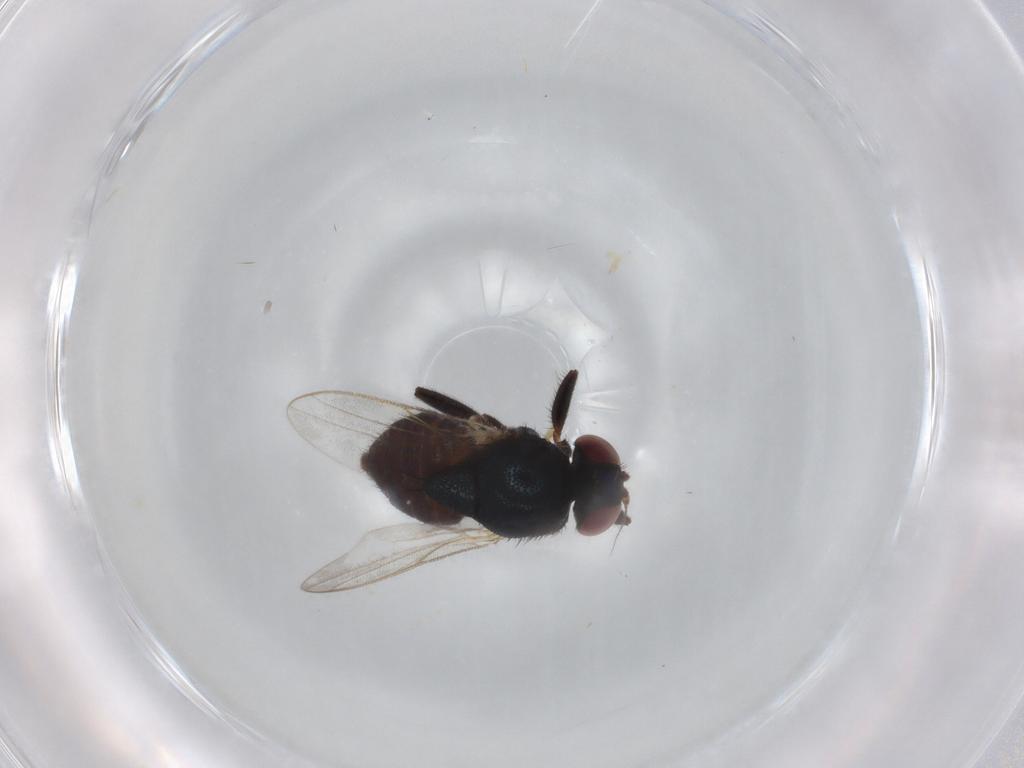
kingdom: Animalia
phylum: Arthropoda
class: Insecta
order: Diptera
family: Chloropidae
